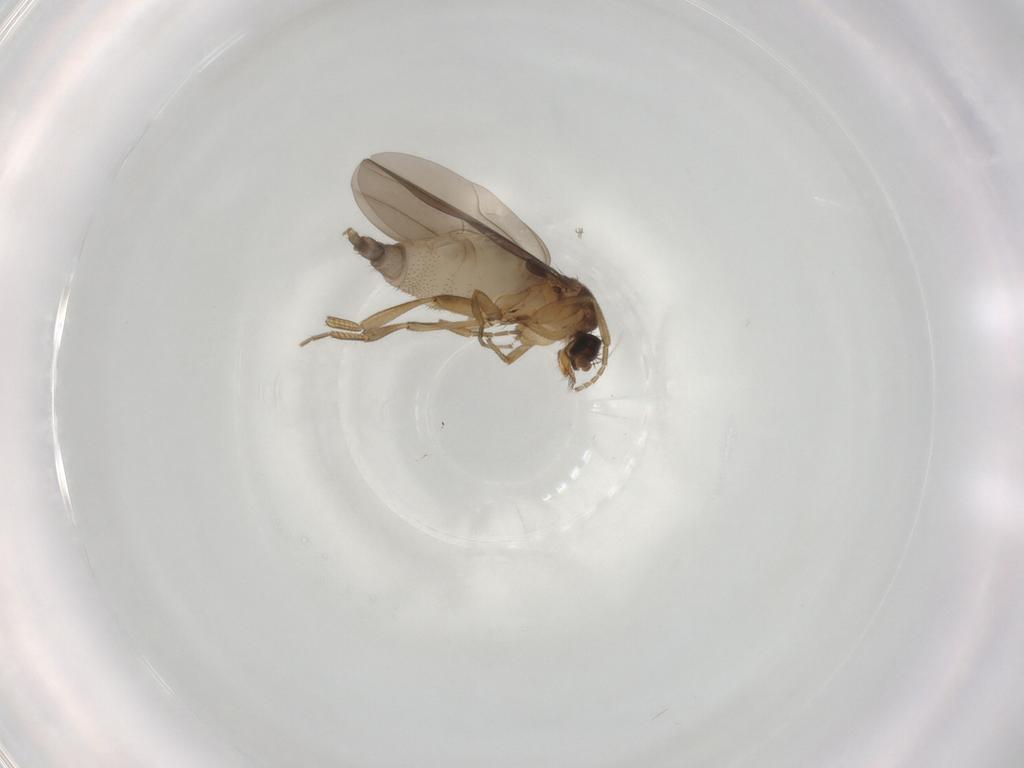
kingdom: Animalia
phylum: Arthropoda
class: Insecta
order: Diptera
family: Phoridae
